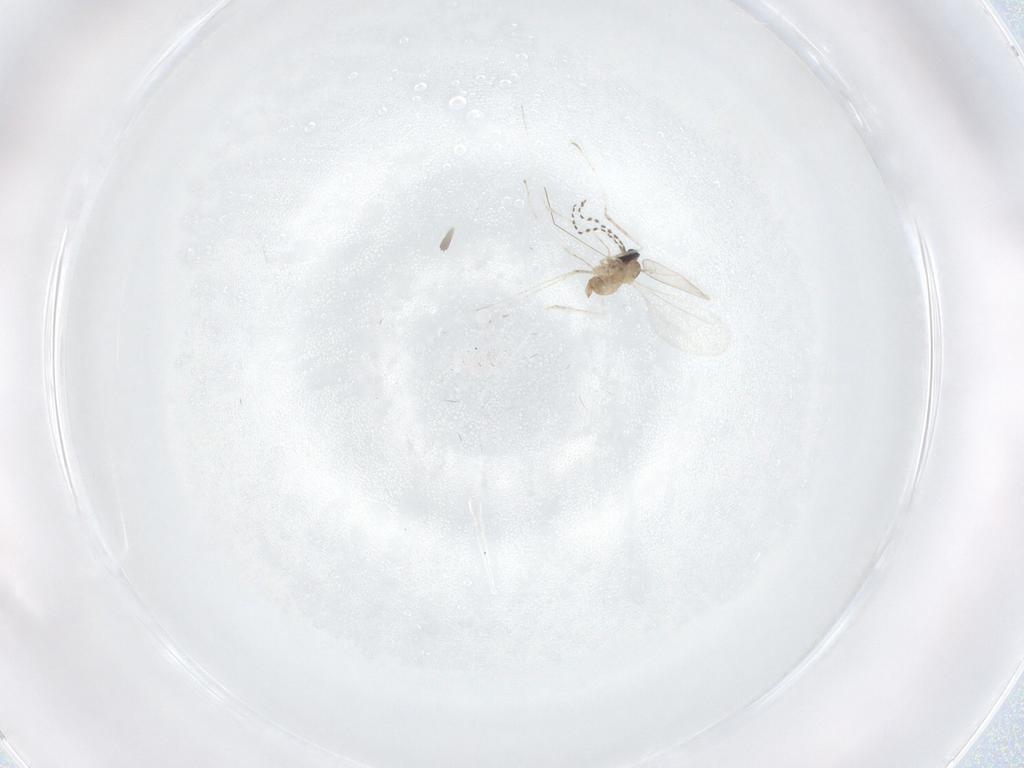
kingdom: Animalia
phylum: Arthropoda
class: Insecta
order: Diptera
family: Cecidomyiidae
